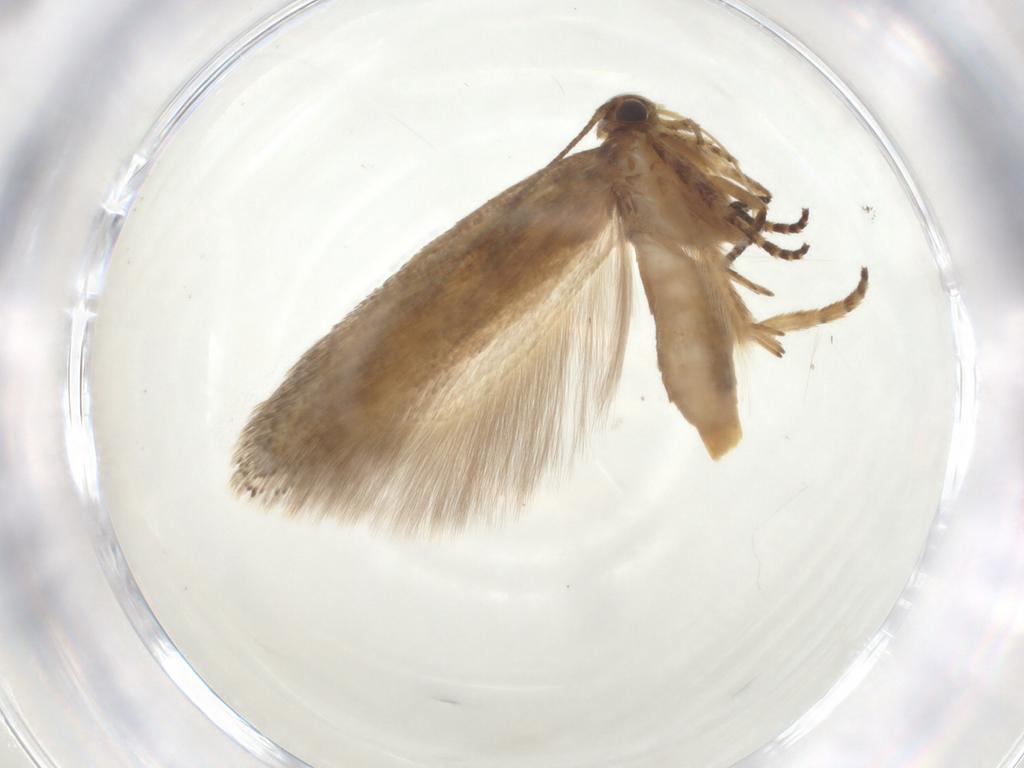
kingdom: Animalia
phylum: Arthropoda
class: Insecta
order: Lepidoptera
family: Gelechiidae
